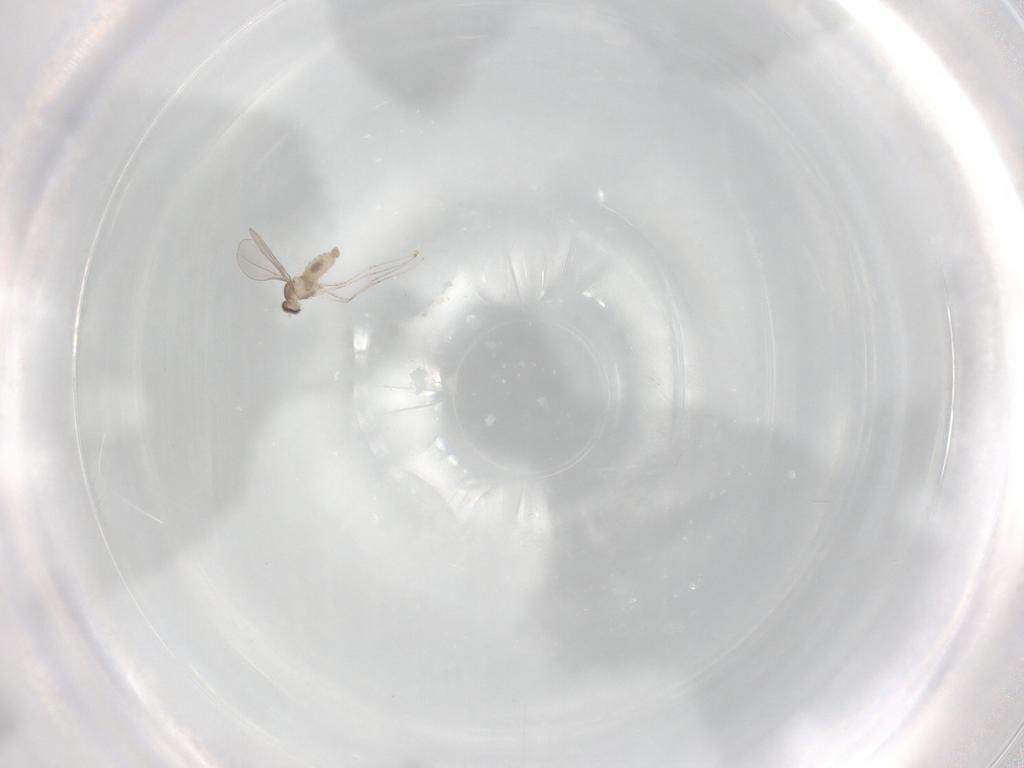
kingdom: Animalia
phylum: Arthropoda
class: Insecta
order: Diptera
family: Cecidomyiidae
